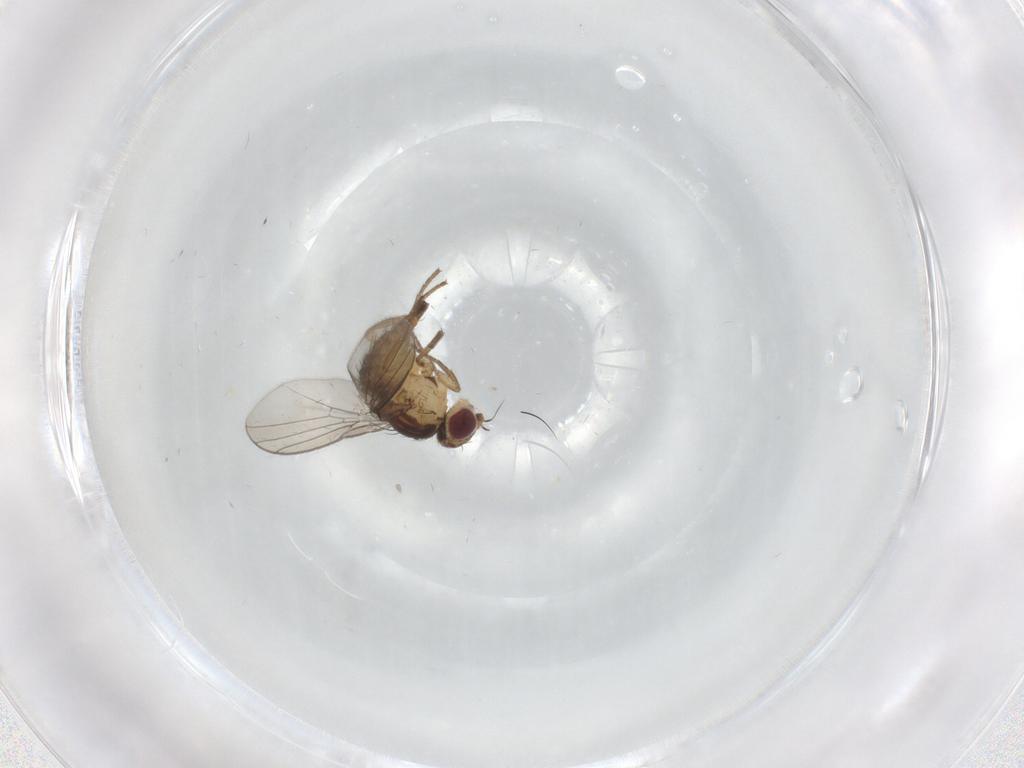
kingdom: Animalia
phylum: Arthropoda
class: Insecta
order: Diptera
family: Agromyzidae
